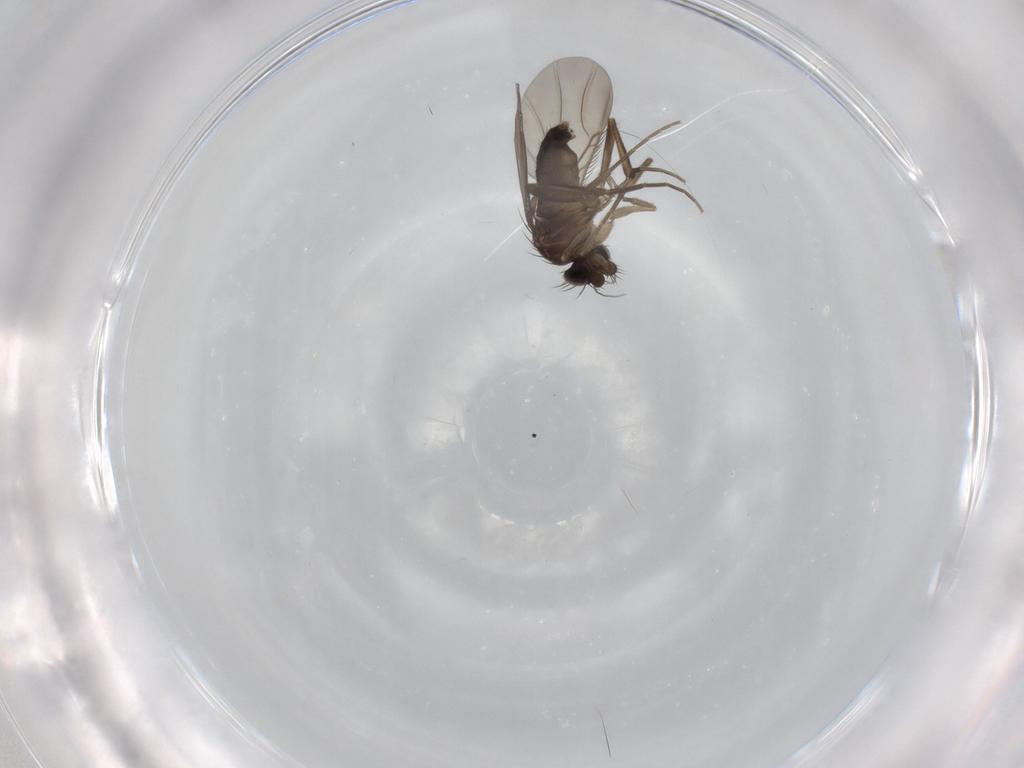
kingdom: Animalia
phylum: Arthropoda
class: Insecta
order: Diptera
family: Phoridae
